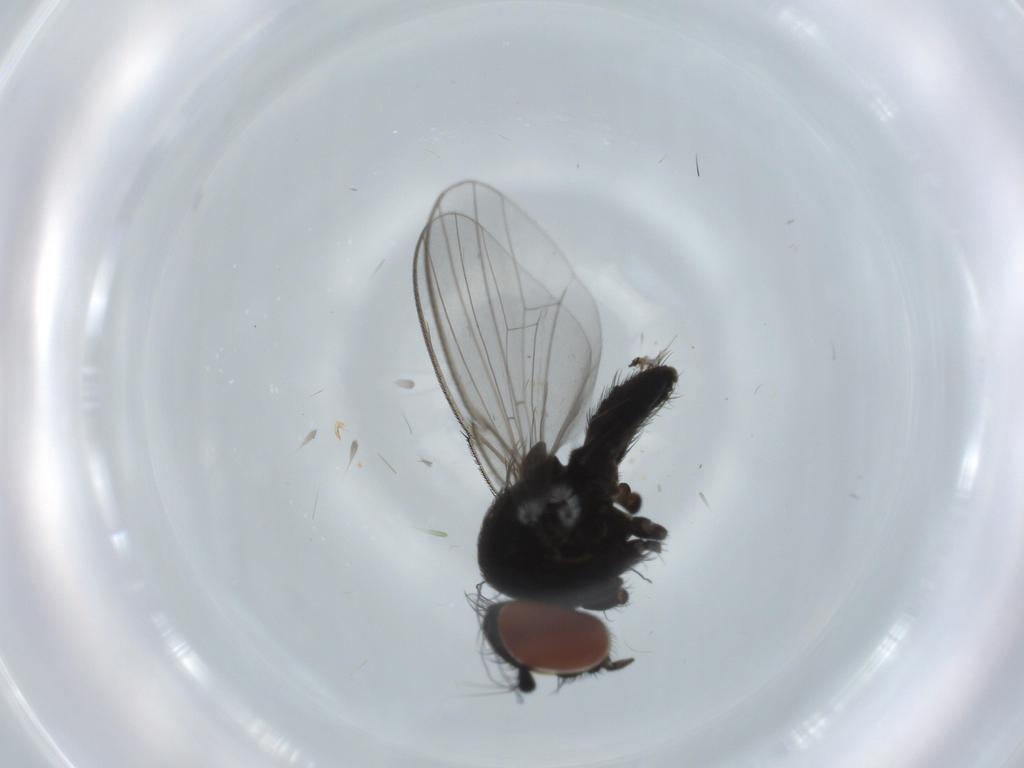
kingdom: Animalia
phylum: Arthropoda
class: Insecta
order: Diptera
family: Milichiidae
